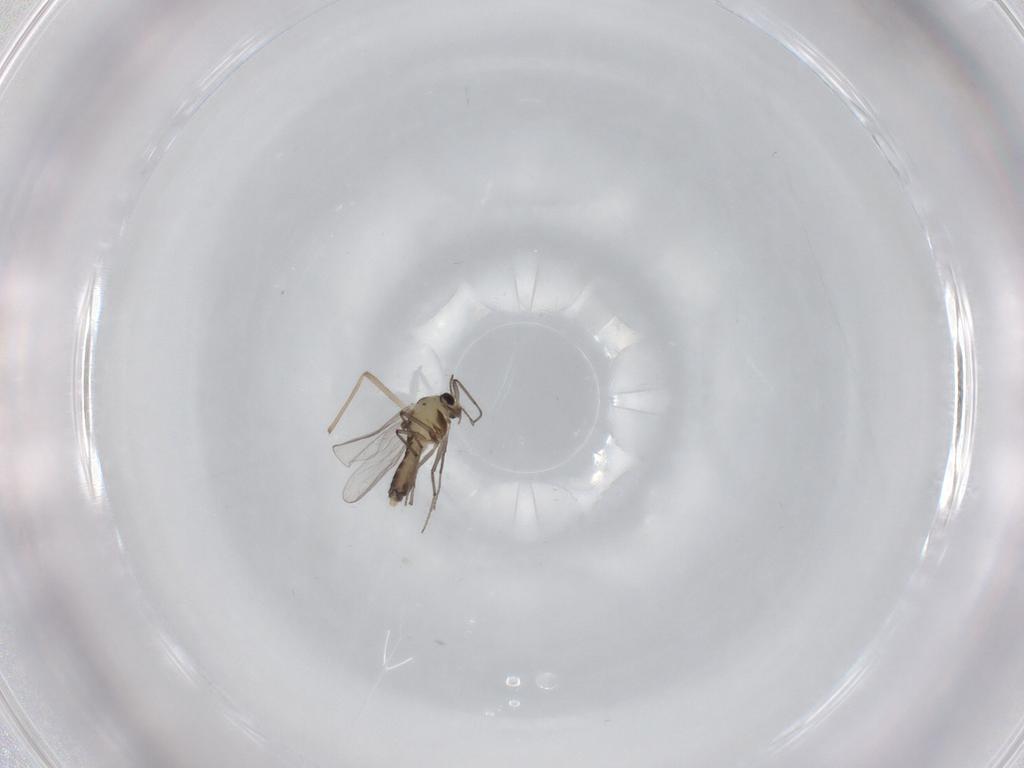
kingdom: Animalia
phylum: Arthropoda
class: Insecta
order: Diptera
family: Chironomidae
